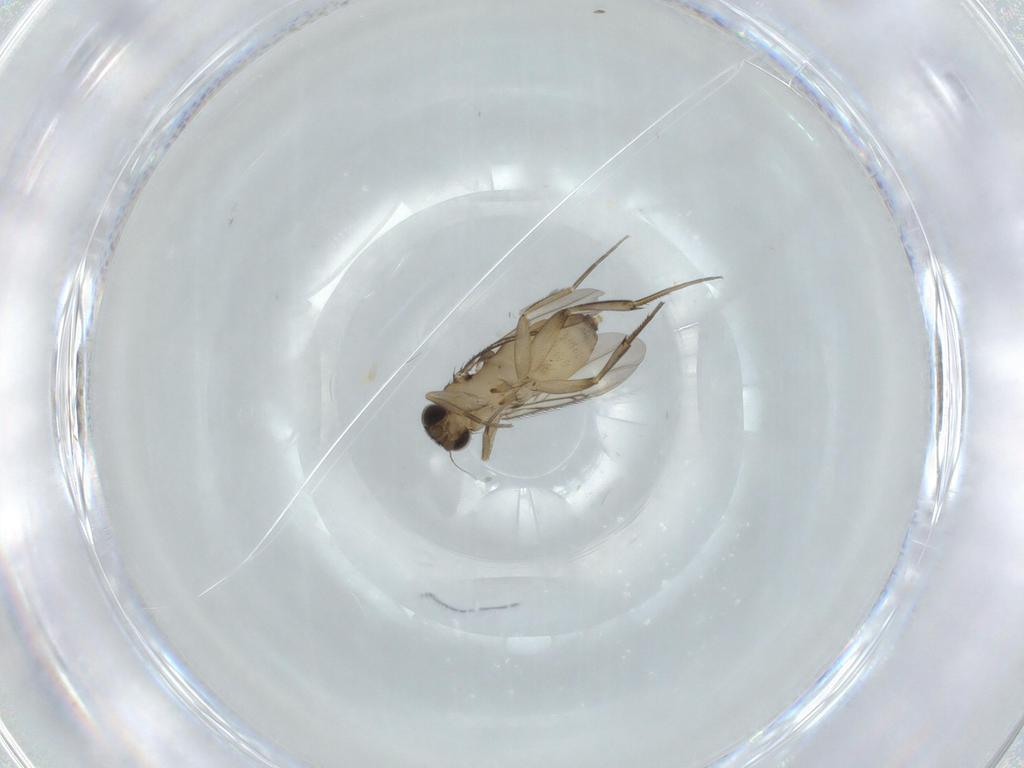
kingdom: Animalia
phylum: Arthropoda
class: Insecta
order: Diptera
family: Phoridae
